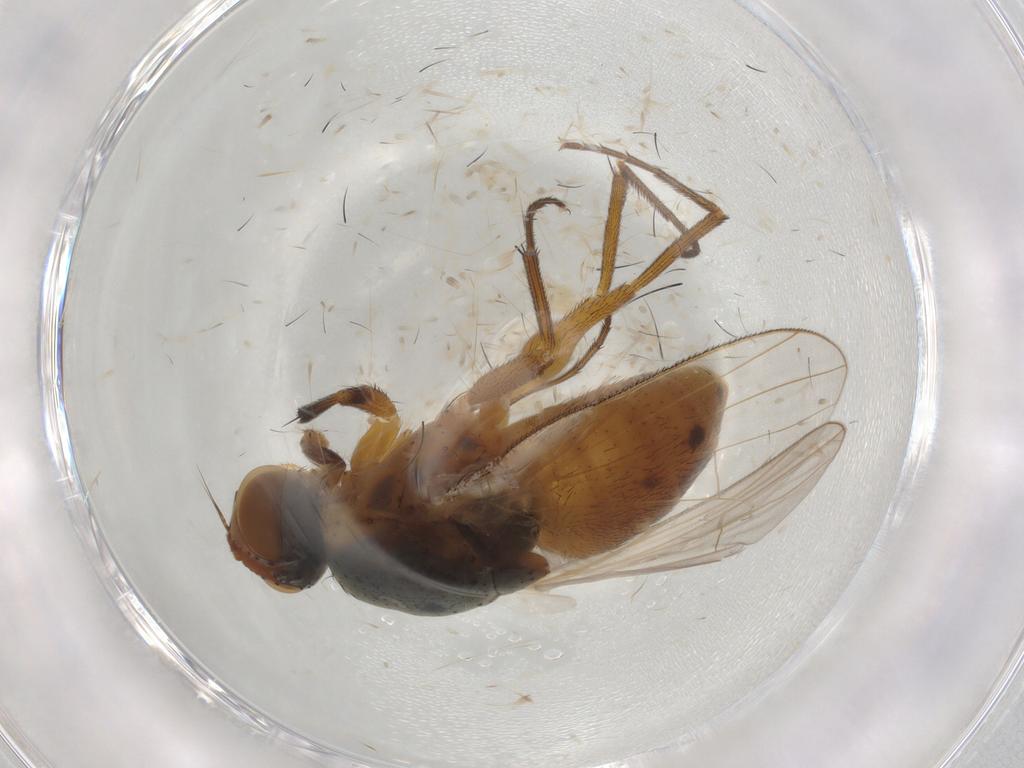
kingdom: Animalia
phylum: Arthropoda
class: Insecta
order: Diptera
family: Muscidae
